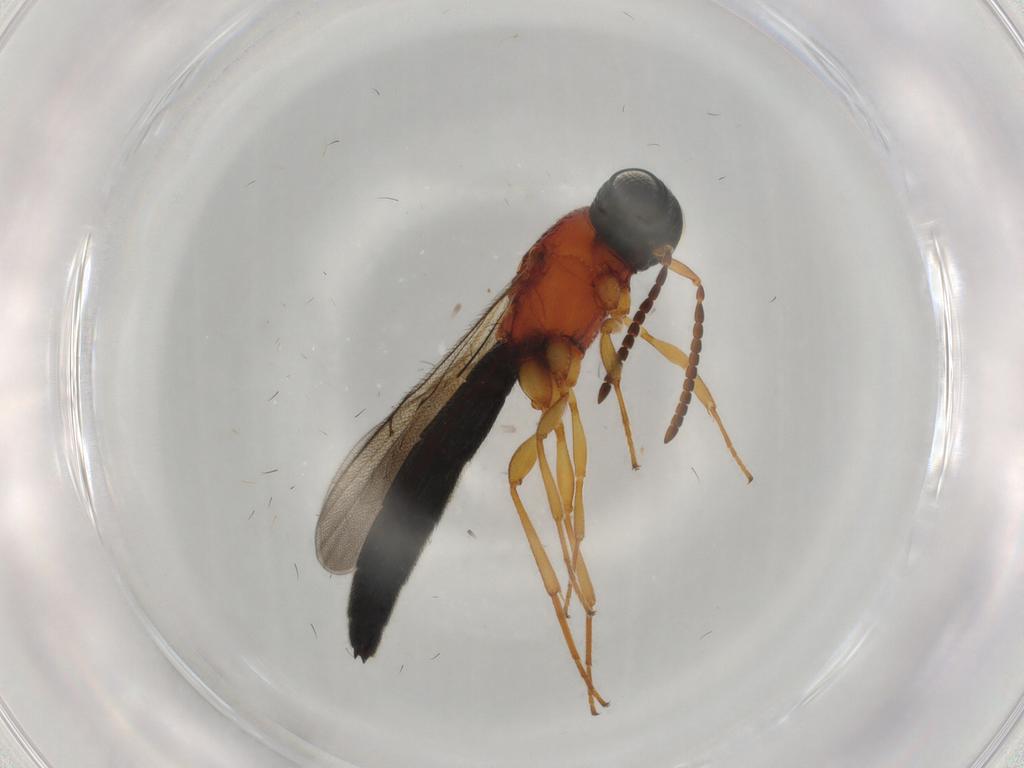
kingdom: Animalia
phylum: Arthropoda
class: Insecta
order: Hymenoptera
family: Scelionidae
